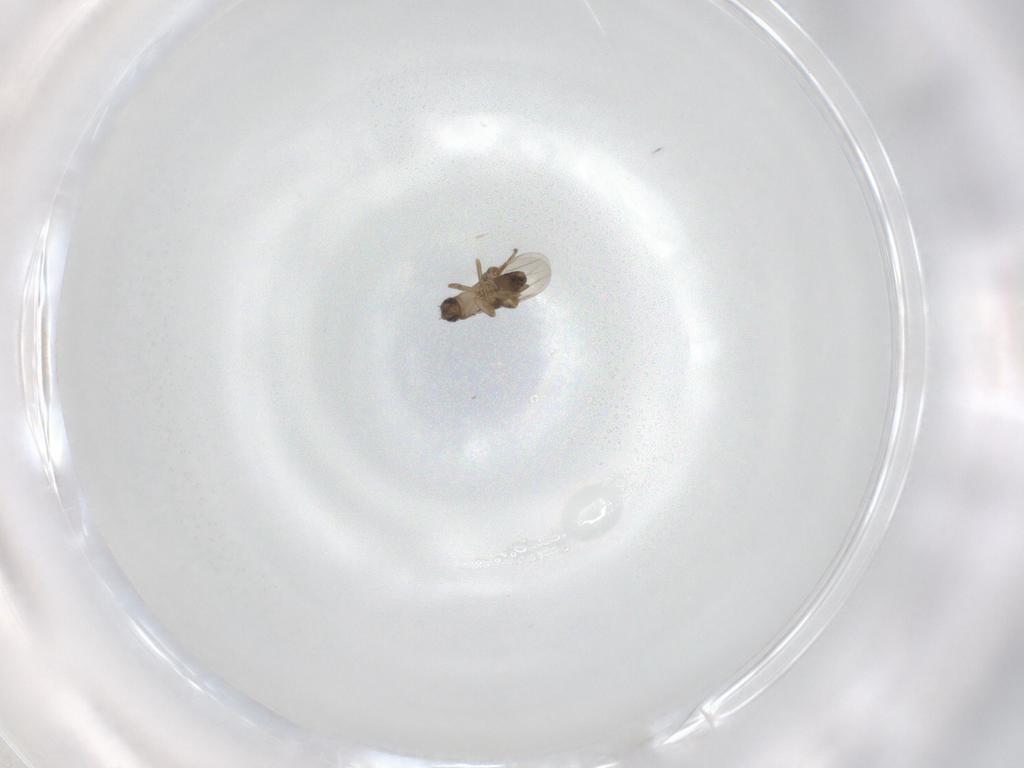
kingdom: Animalia
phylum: Arthropoda
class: Insecta
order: Diptera
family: Ceratopogonidae
